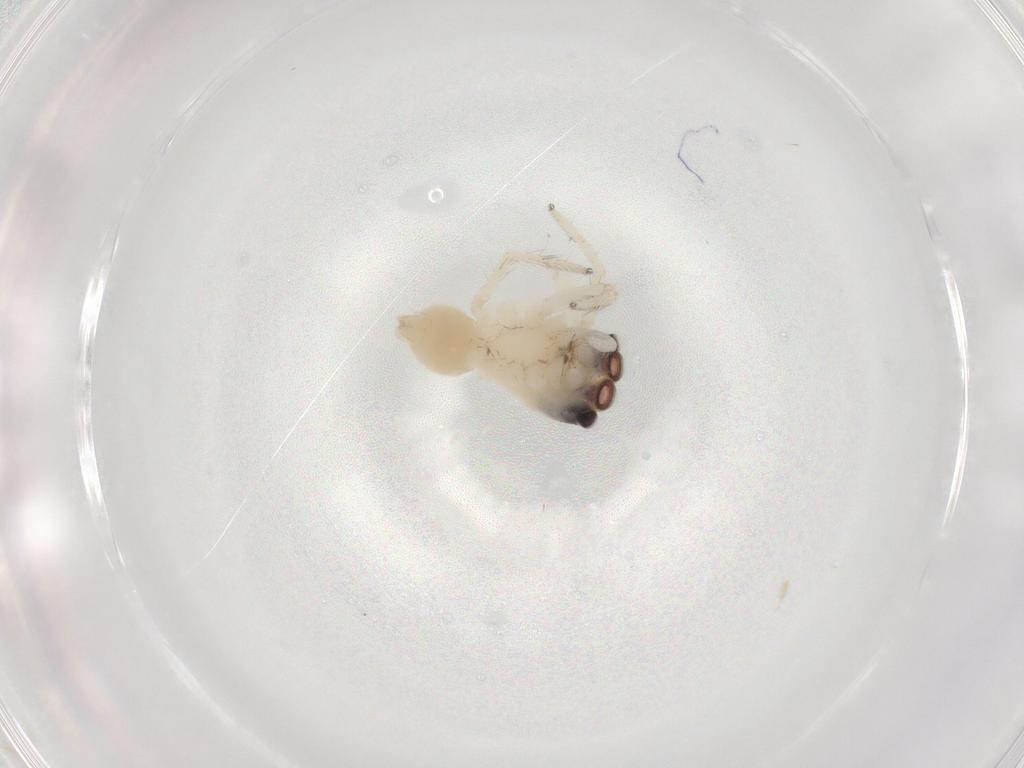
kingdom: Animalia
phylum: Arthropoda
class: Arachnida
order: Araneae
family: Salticidae
